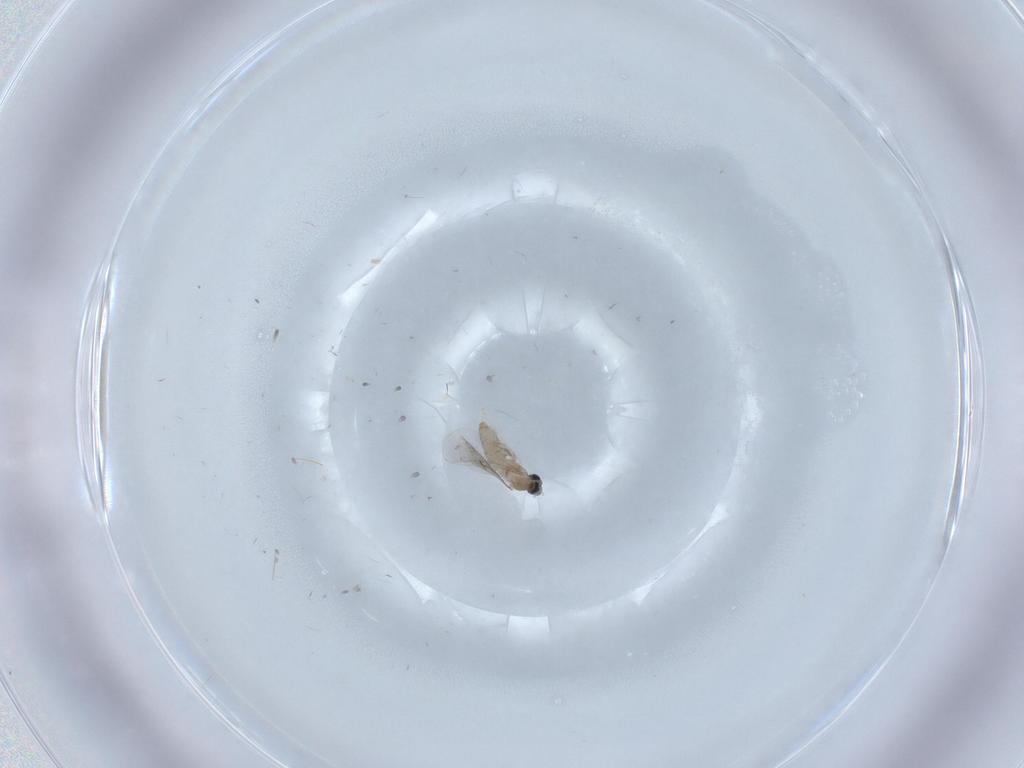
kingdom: Animalia
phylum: Arthropoda
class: Insecta
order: Diptera
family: Cecidomyiidae
